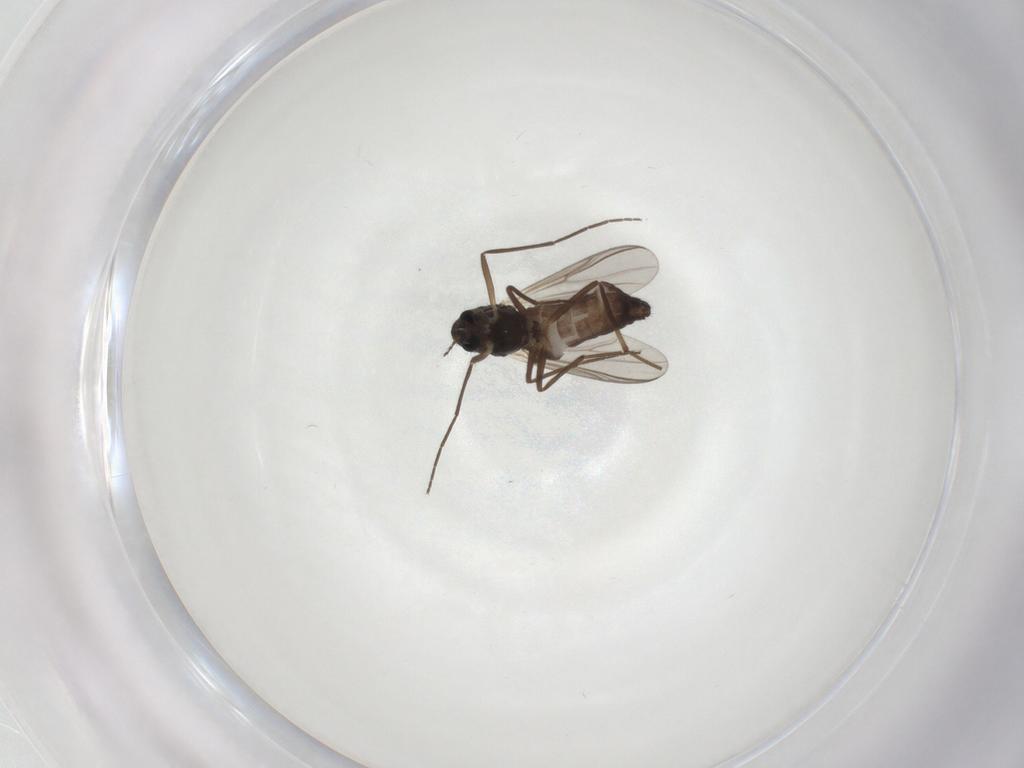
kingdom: Animalia
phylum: Arthropoda
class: Insecta
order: Diptera
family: Chironomidae
